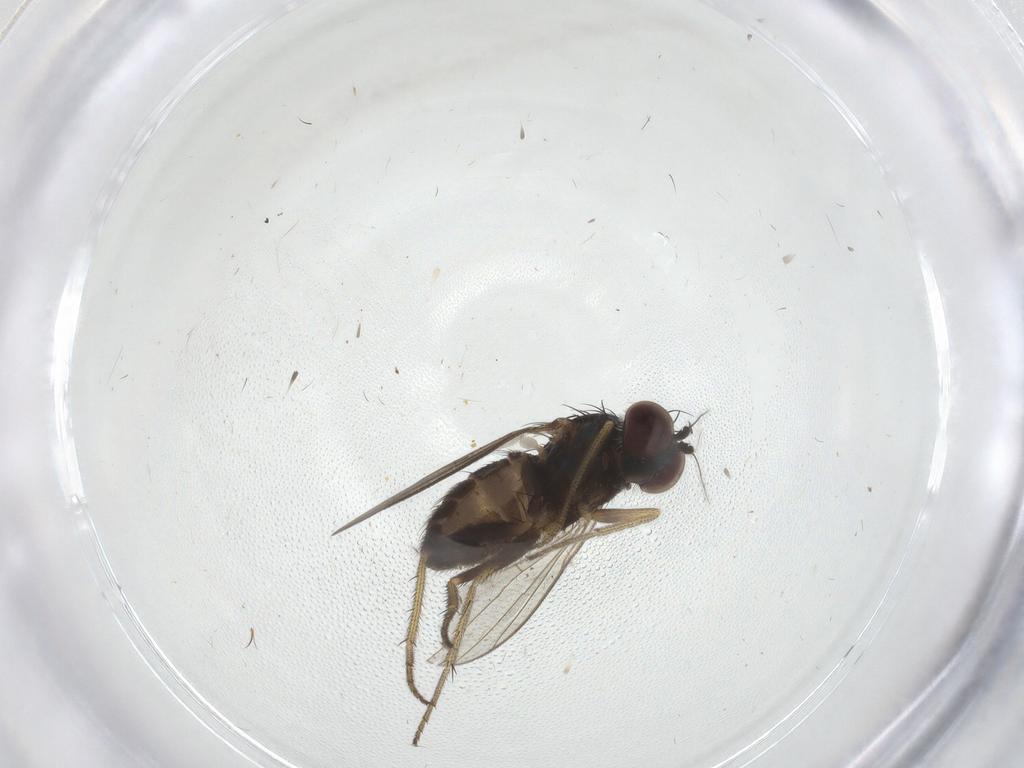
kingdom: Animalia
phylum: Arthropoda
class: Insecta
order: Diptera
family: Dolichopodidae
